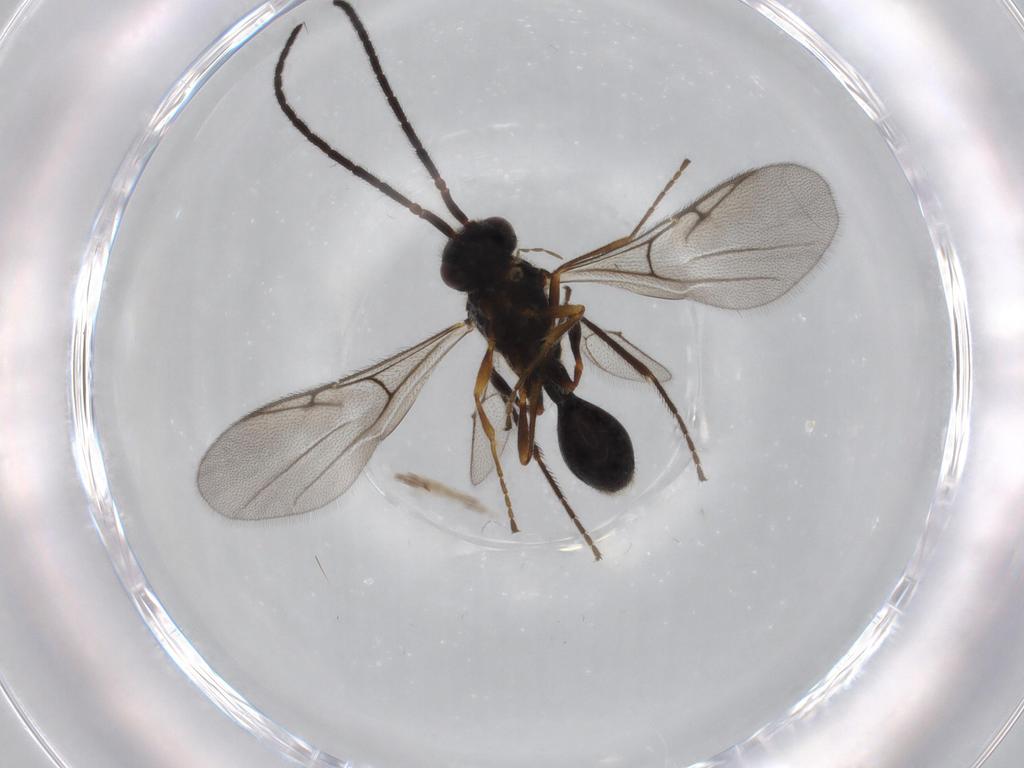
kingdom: Animalia
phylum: Arthropoda
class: Insecta
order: Hymenoptera
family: Diapriidae
